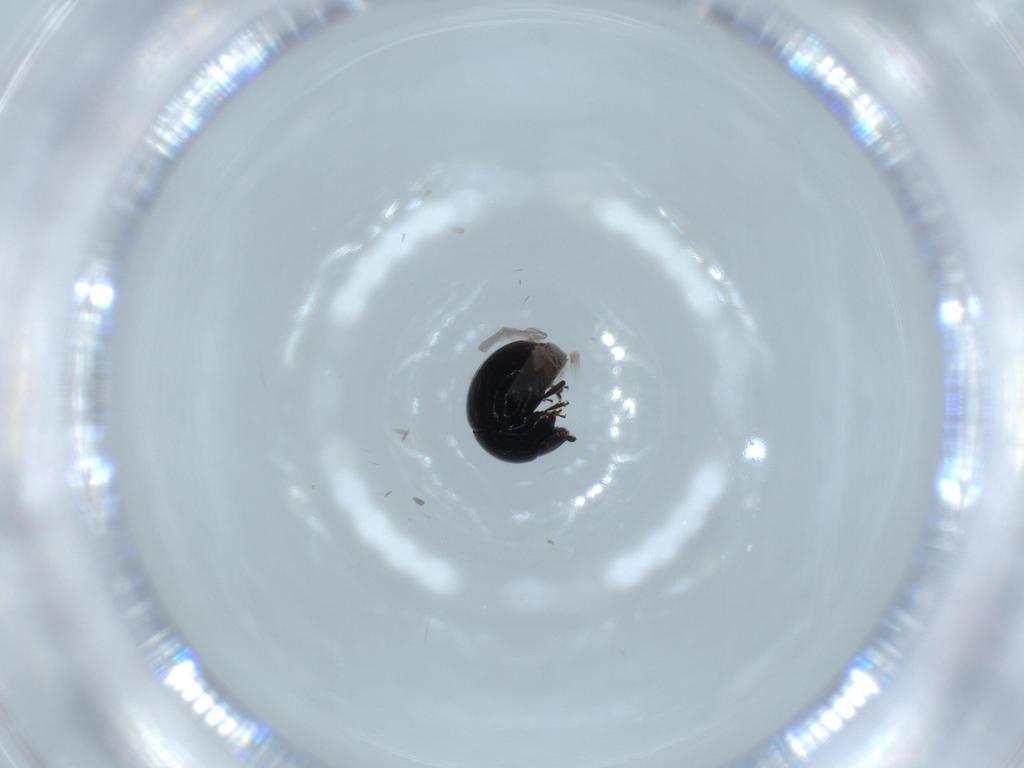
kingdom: Animalia
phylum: Arthropoda
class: Insecta
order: Coleoptera
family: Cybocephalidae
